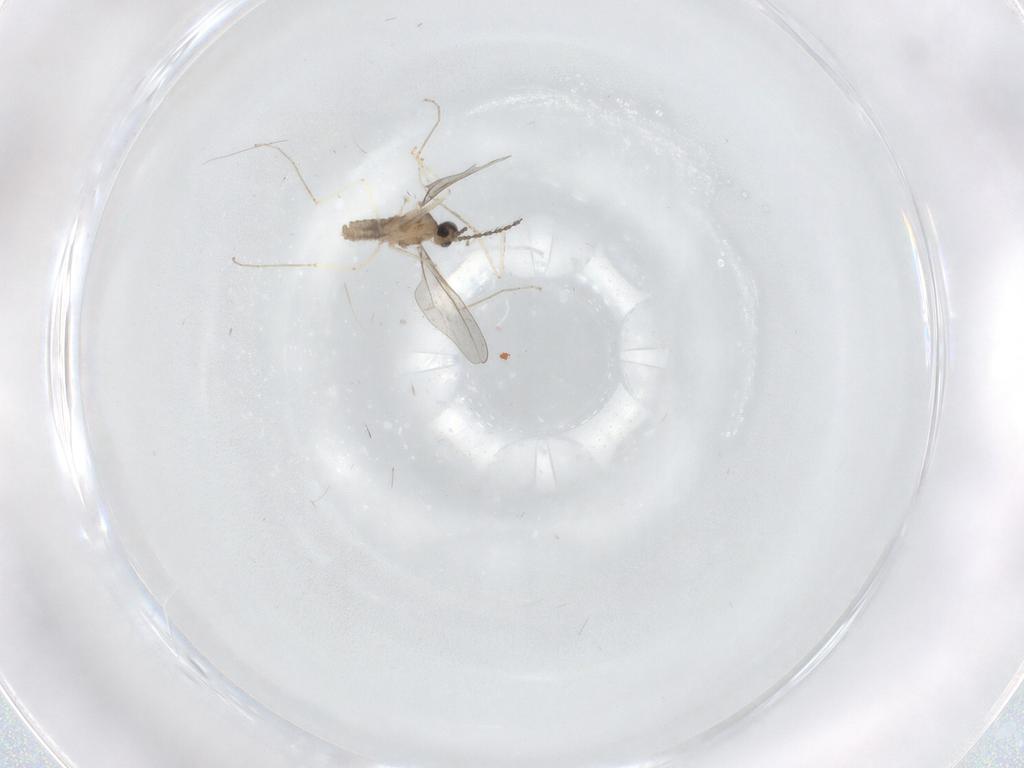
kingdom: Animalia
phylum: Arthropoda
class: Insecta
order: Diptera
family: Cecidomyiidae
